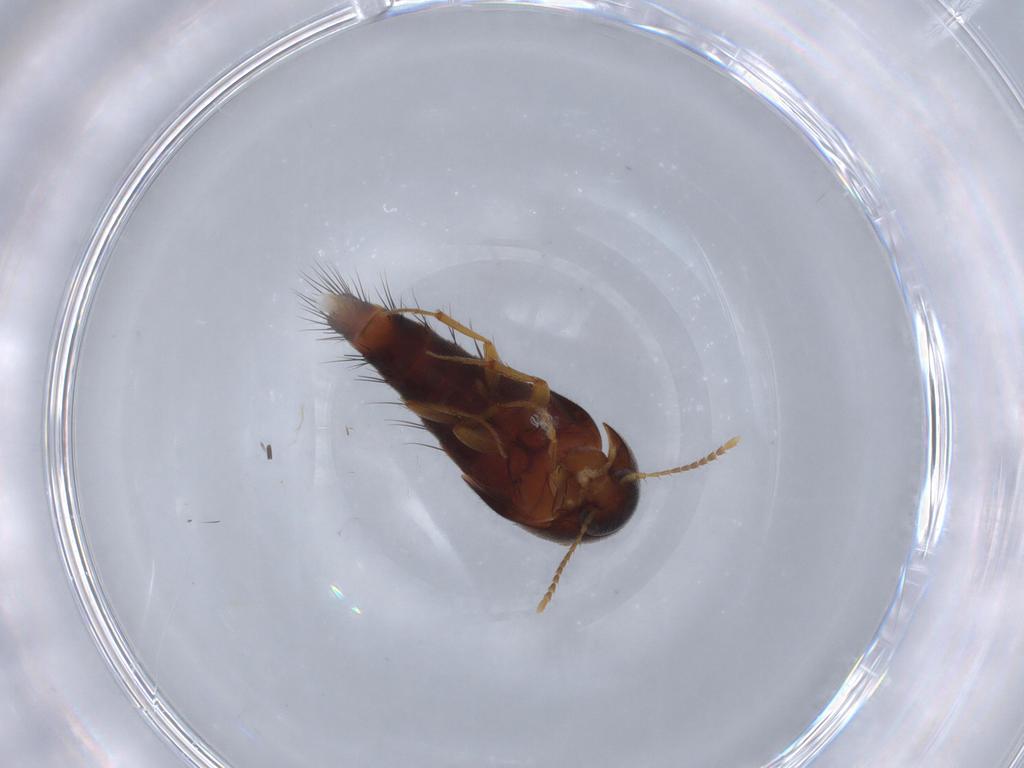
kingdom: Animalia
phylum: Arthropoda
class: Insecta
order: Coleoptera
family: Staphylinidae
